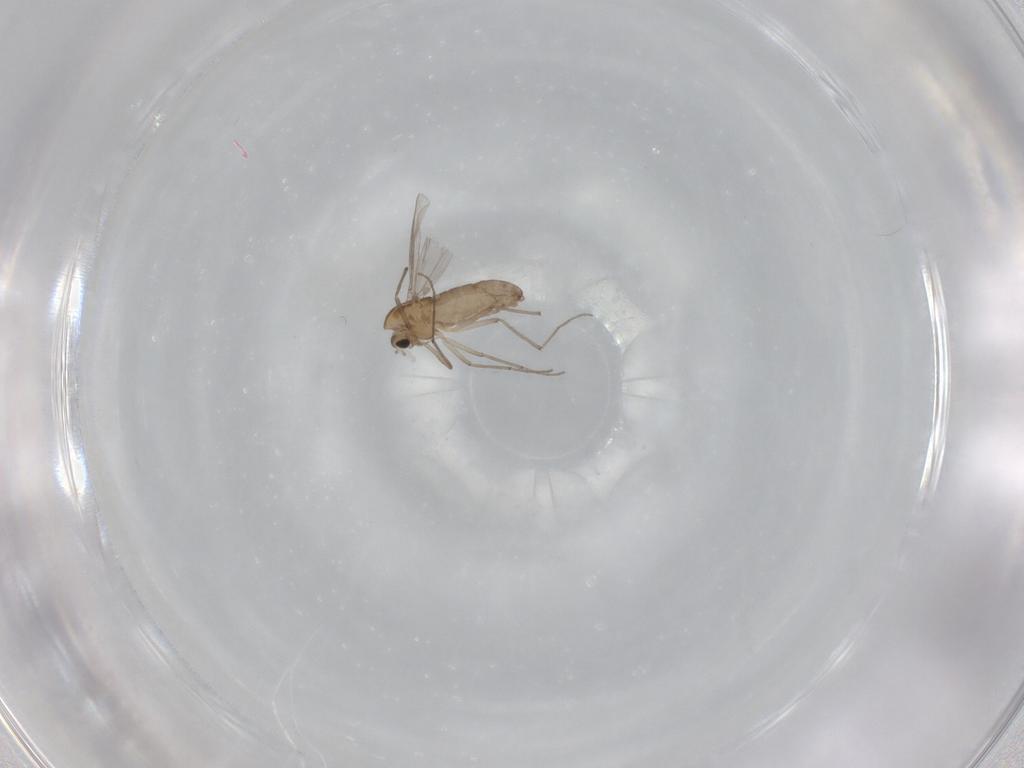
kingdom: Animalia
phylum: Arthropoda
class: Insecta
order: Diptera
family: Chironomidae
